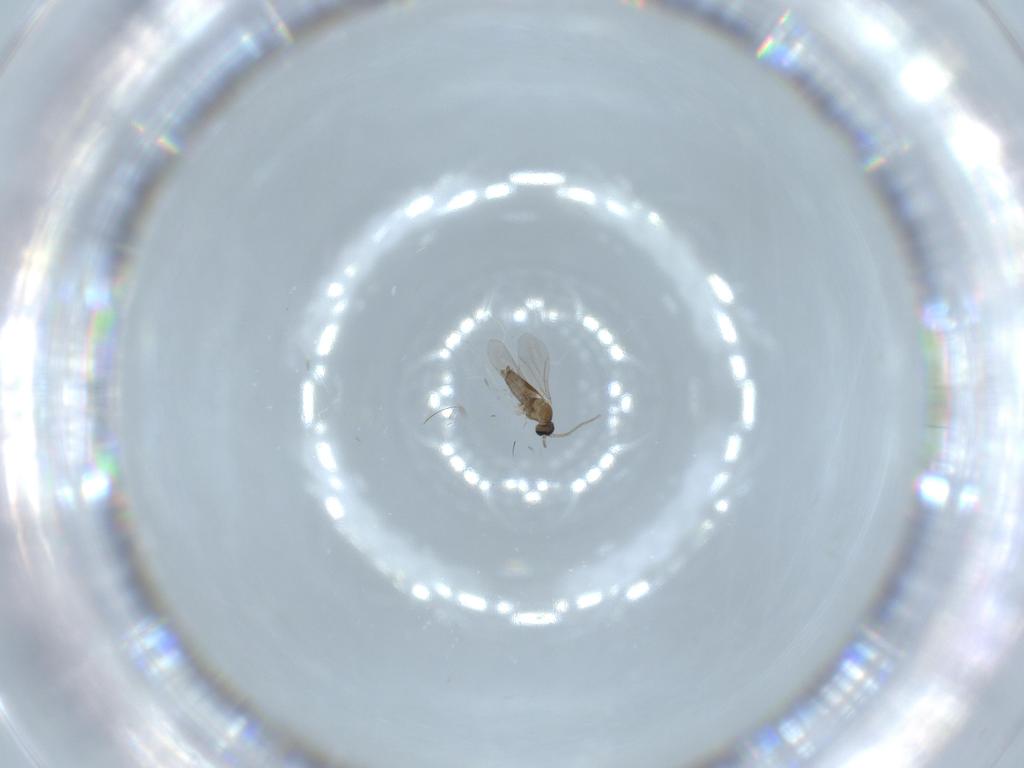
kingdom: Animalia
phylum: Arthropoda
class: Insecta
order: Diptera
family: Cecidomyiidae
